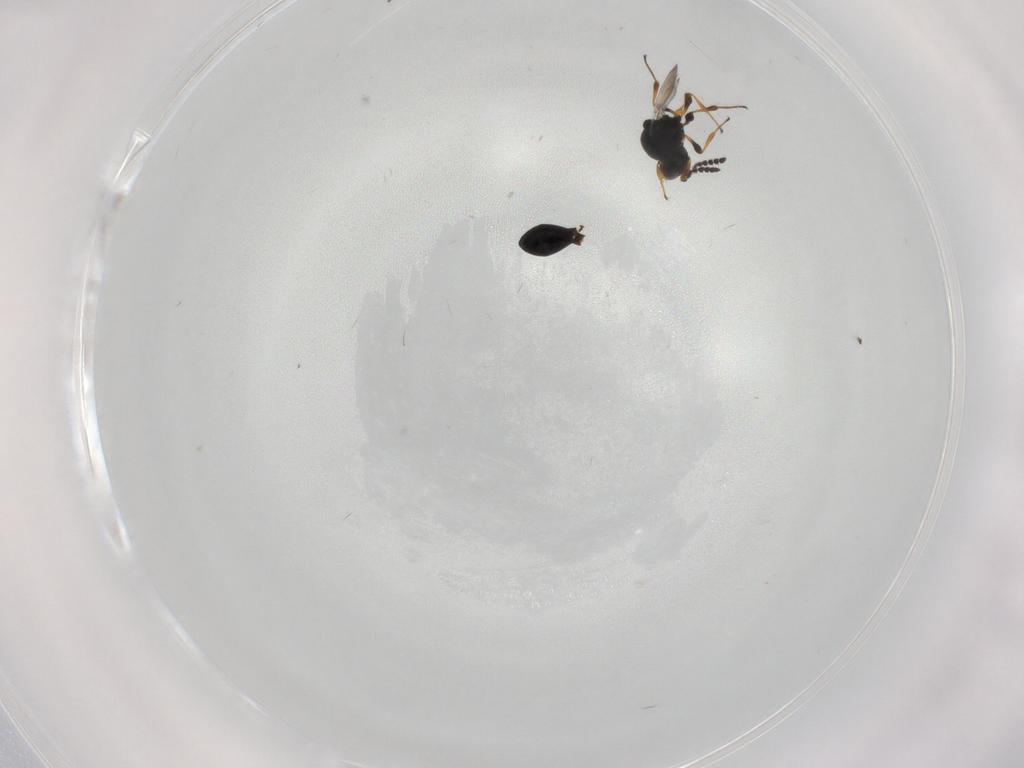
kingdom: Animalia
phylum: Arthropoda
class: Insecta
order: Hymenoptera
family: Platygastridae
